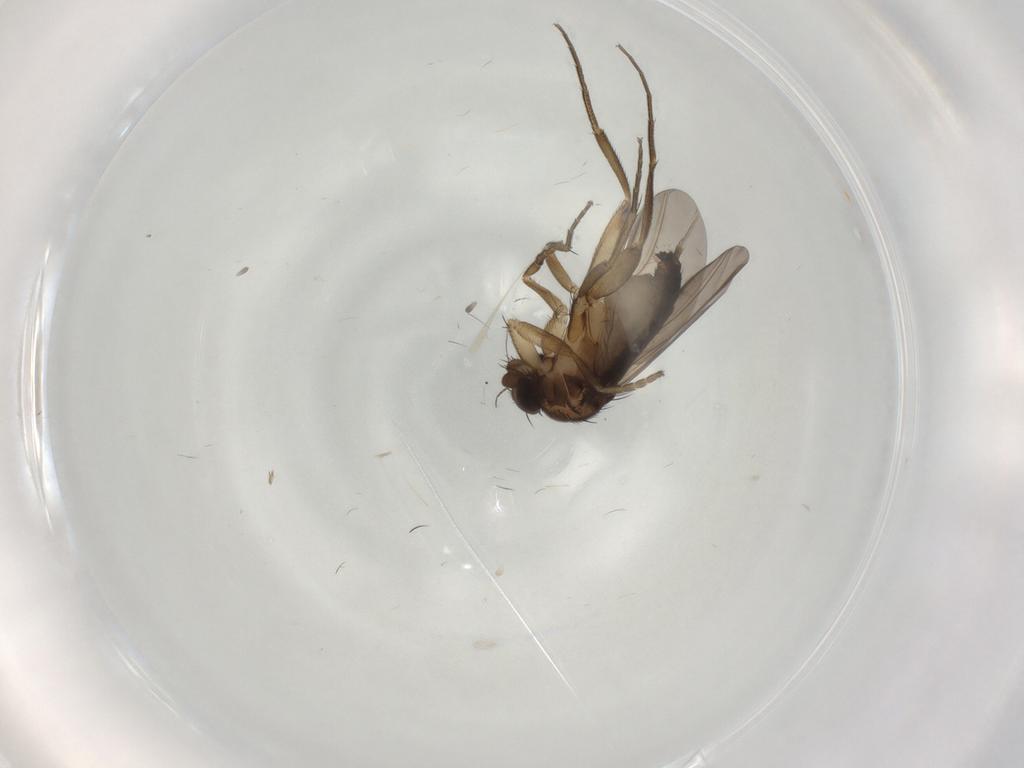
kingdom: Animalia
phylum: Arthropoda
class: Insecta
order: Diptera
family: Phoridae
